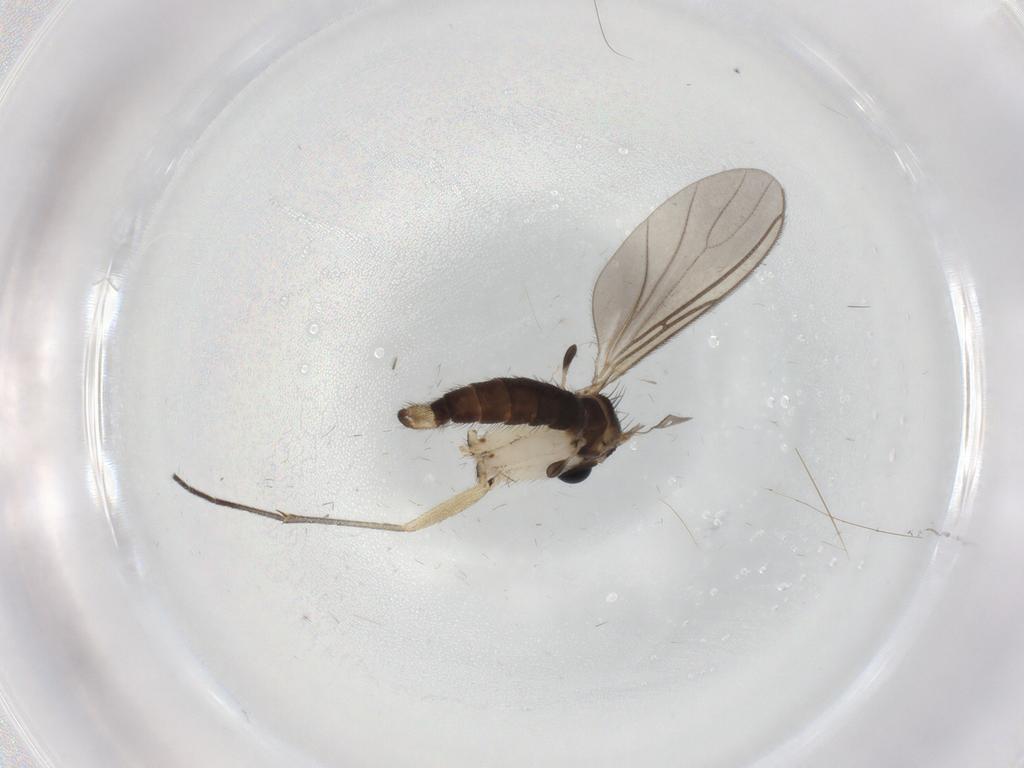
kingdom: Animalia
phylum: Arthropoda
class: Insecta
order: Diptera
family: Sciaridae
